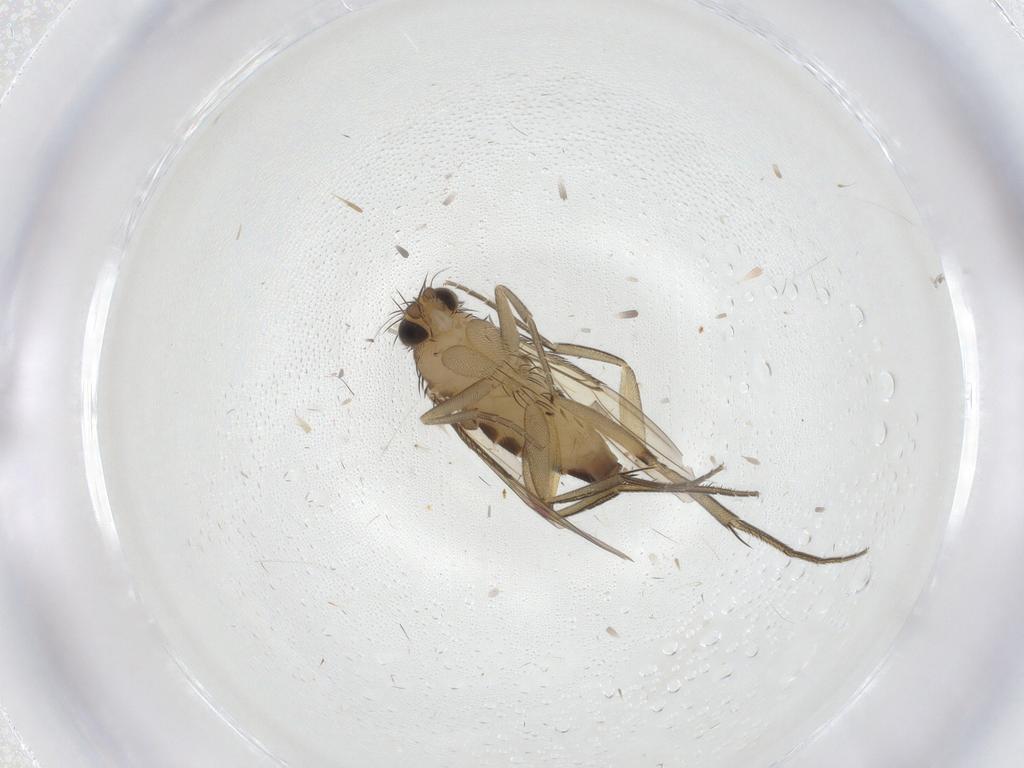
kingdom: Animalia
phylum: Arthropoda
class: Insecta
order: Diptera
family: Phoridae
